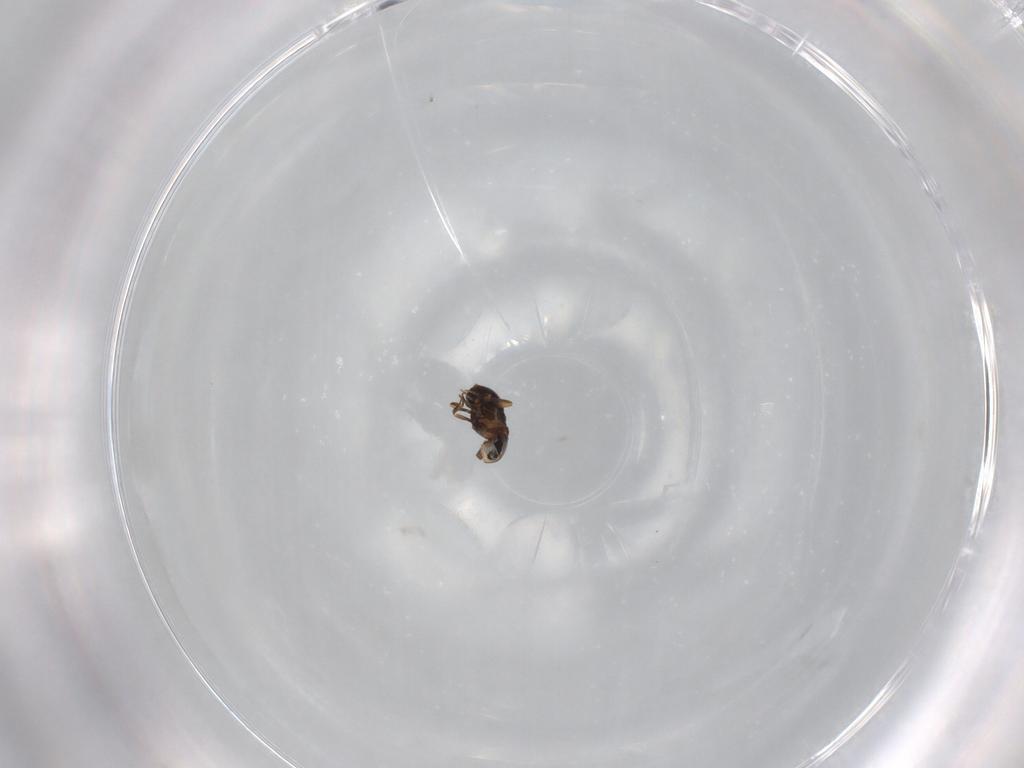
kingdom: Animalia
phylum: Arthropoda
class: Insecta
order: Hymenoptera
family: Scelionidae
